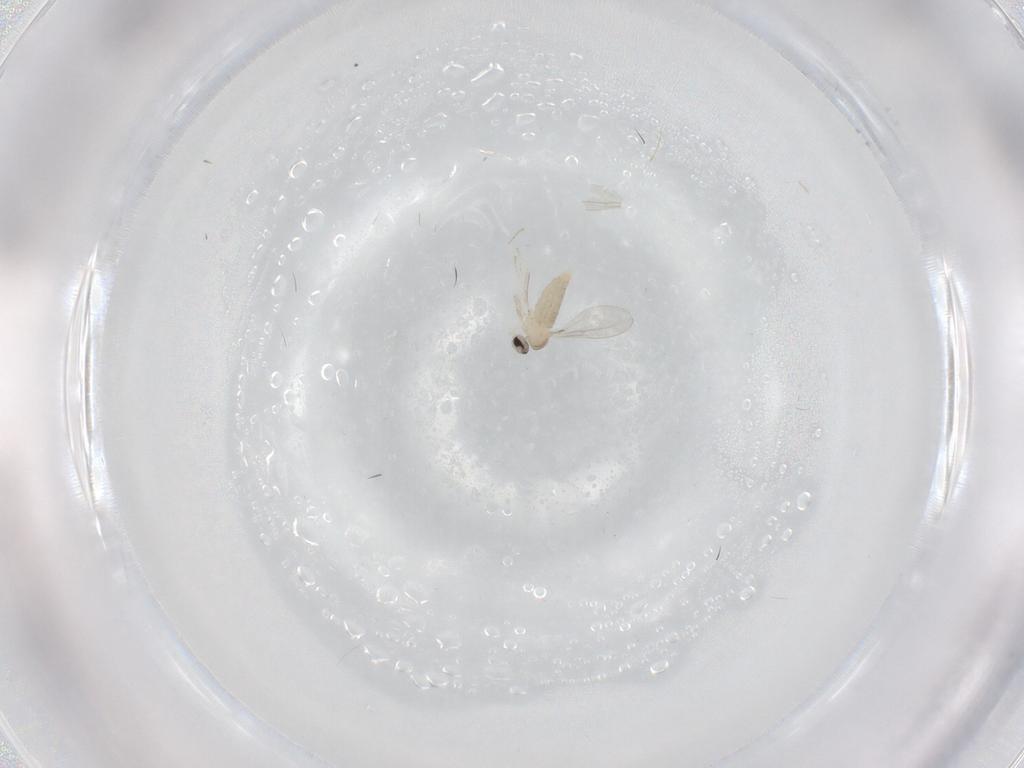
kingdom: Animalia
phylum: Arthropoda
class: Insecta
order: Diptera
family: Cecidomyiidae
